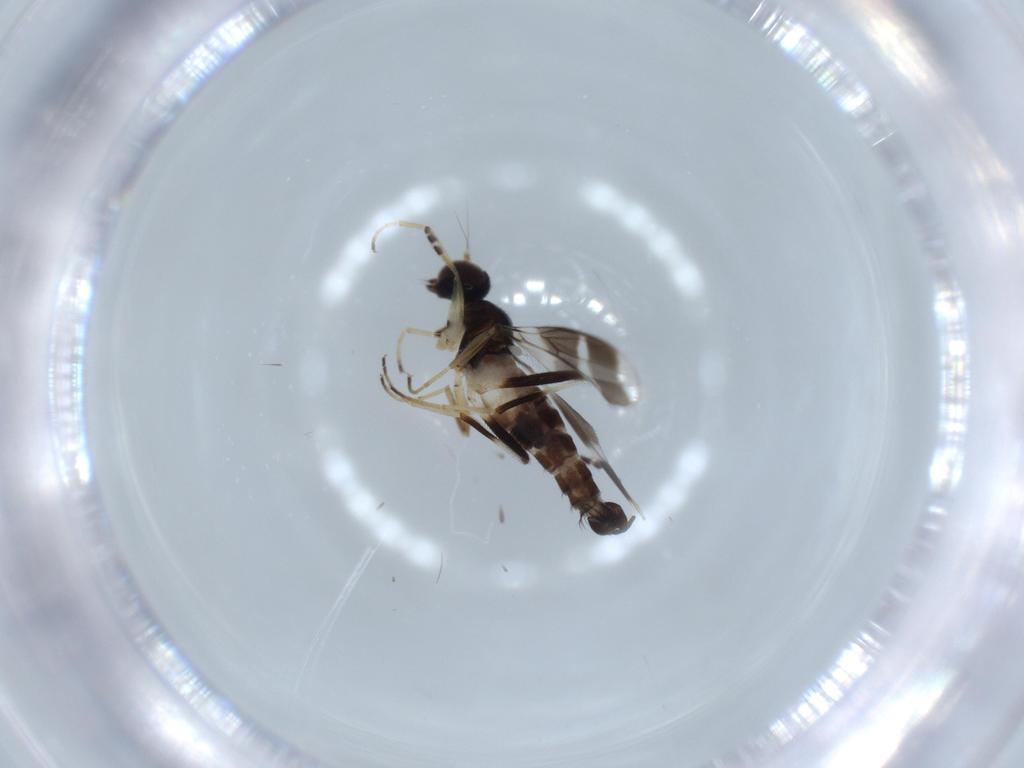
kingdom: Animalia
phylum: Arthropoda
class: Insecta
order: Diptera
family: Hybotidae
